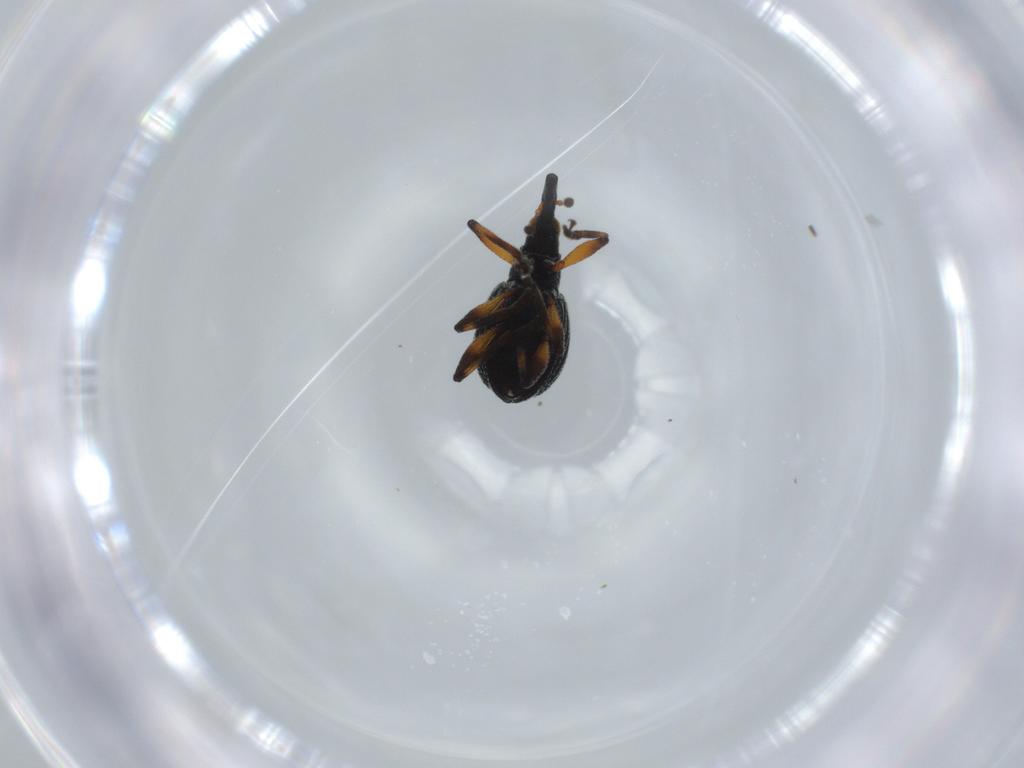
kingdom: Animalia
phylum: Arthropoda
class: Insecta
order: Coleoptera
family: Brentidae
